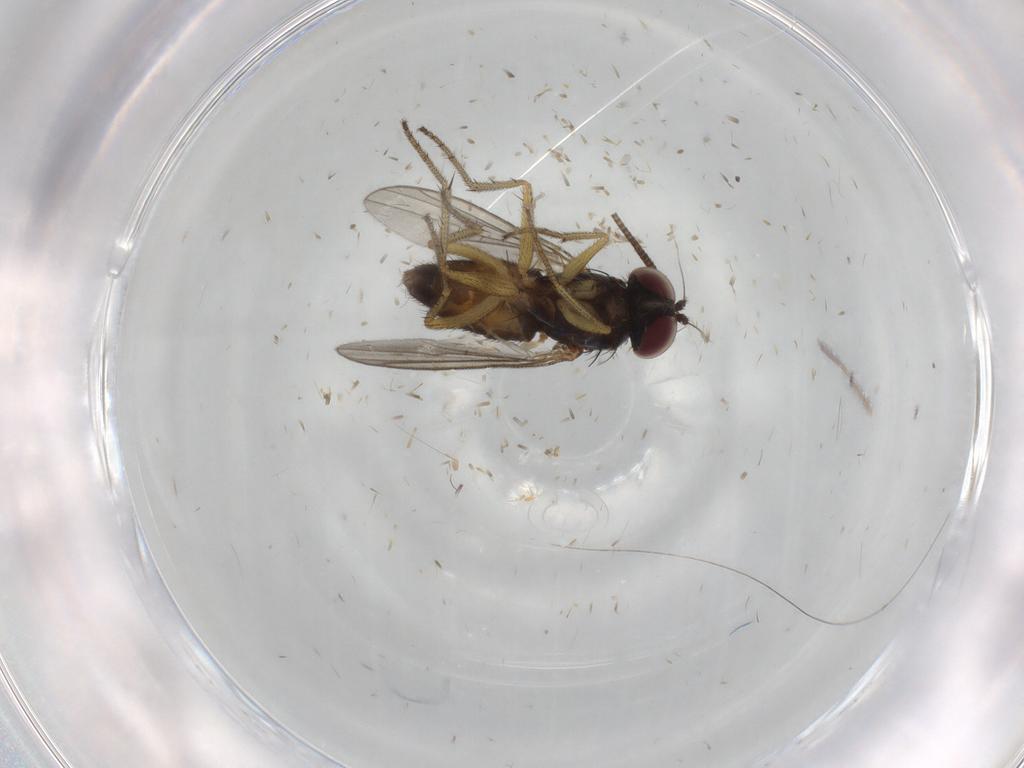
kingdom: Animalia
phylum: Arthropoda
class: Insecta
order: Diptera
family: Dolichopodidae
